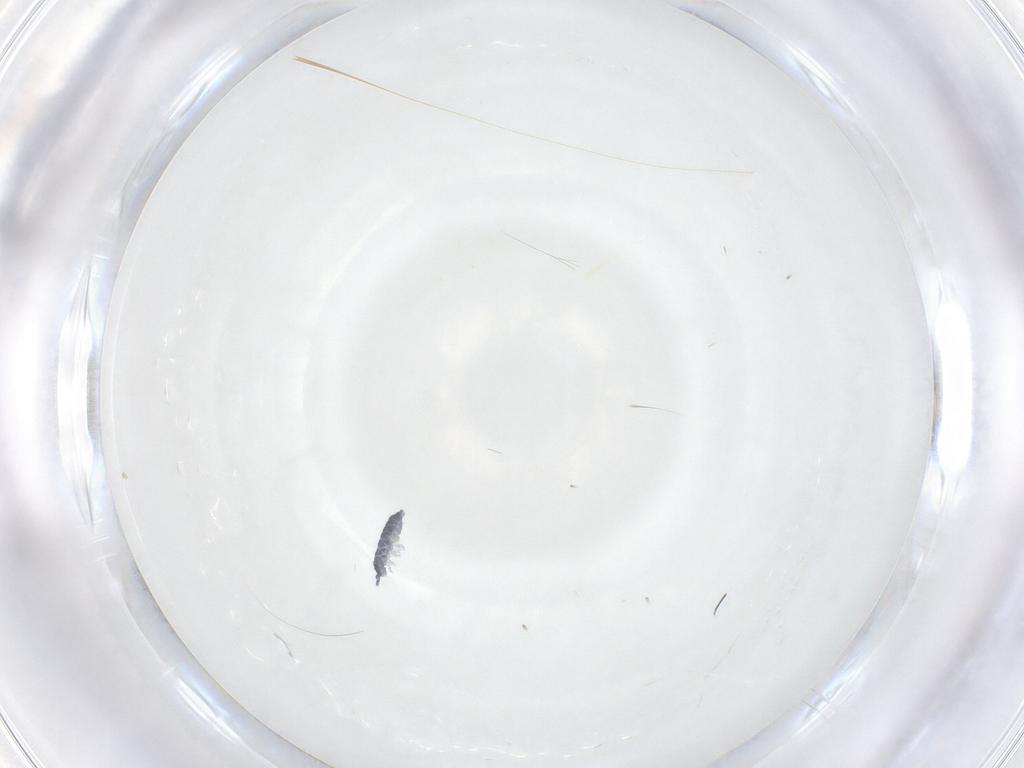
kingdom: Animalia
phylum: Arthropoda
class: Collembola
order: Poduromorpha
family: Hypogastruridae
